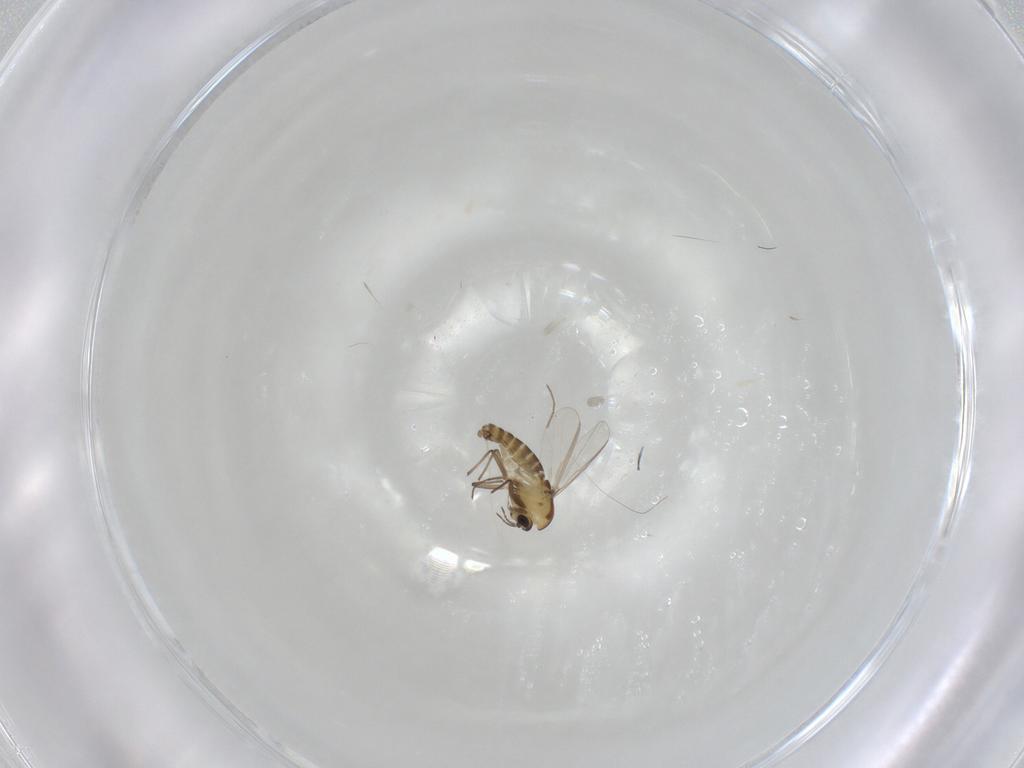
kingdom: Animalia
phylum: Arthropoda
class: Insecta
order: Diptera
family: Chironomidae
